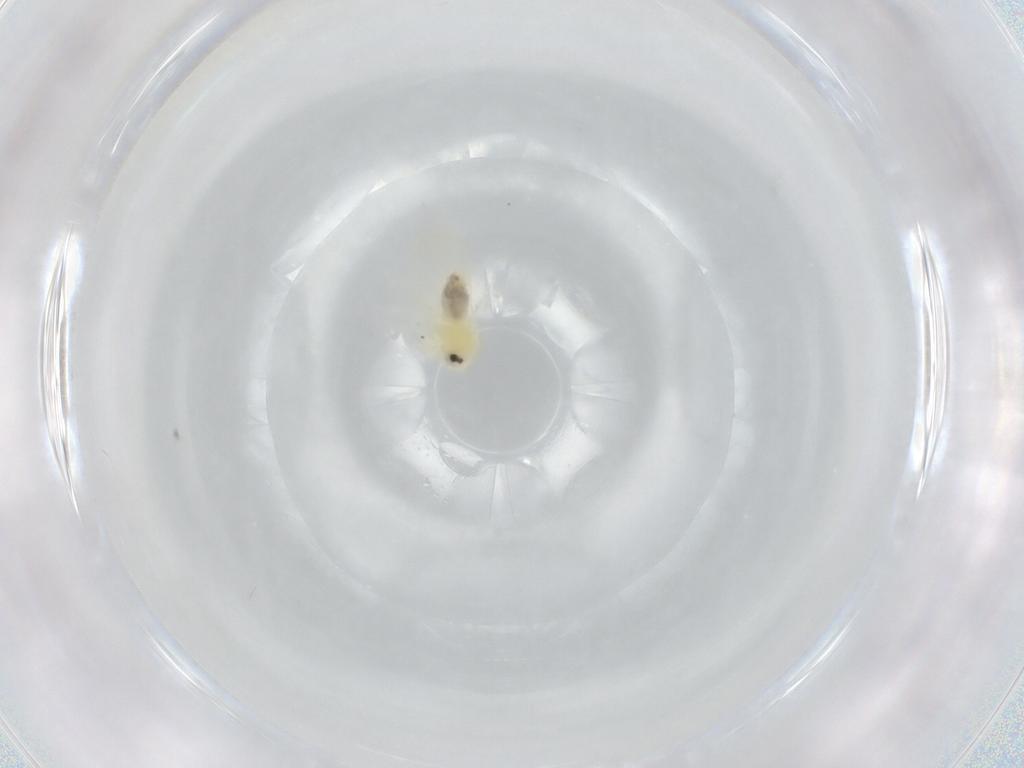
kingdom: Animalia
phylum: Arthropoda
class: Insecta
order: Hemiptera
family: Aleyrodidae
